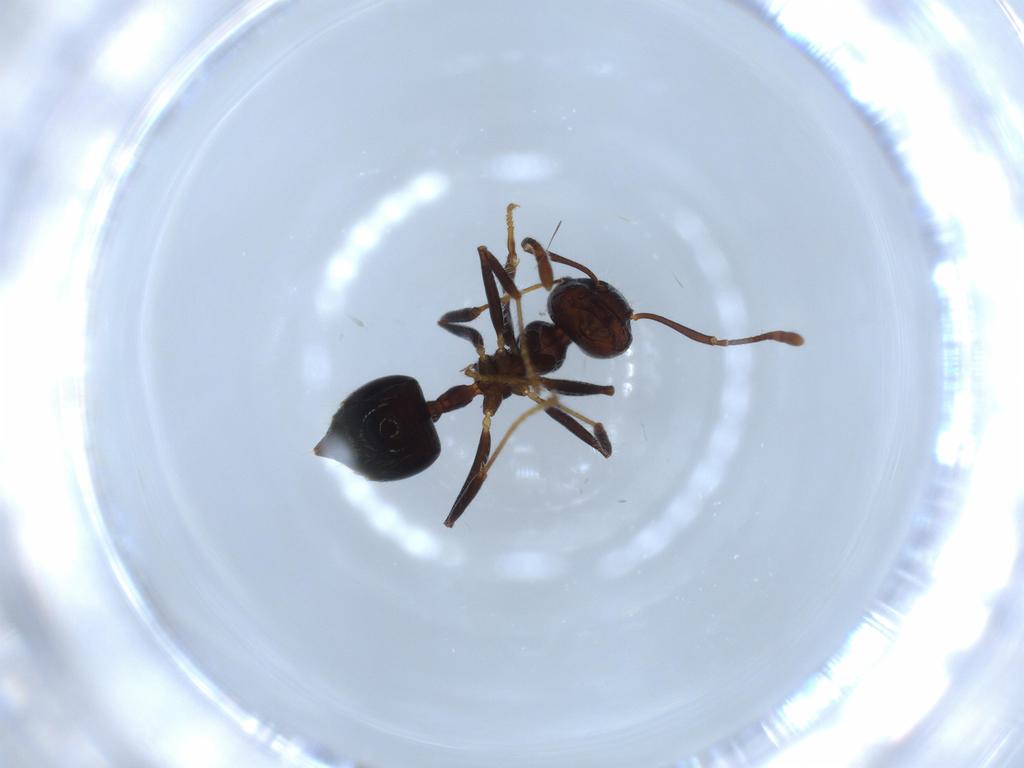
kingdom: Animalia
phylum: Arthropoda
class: Insecta
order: Hymenoptera
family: Formicidae
